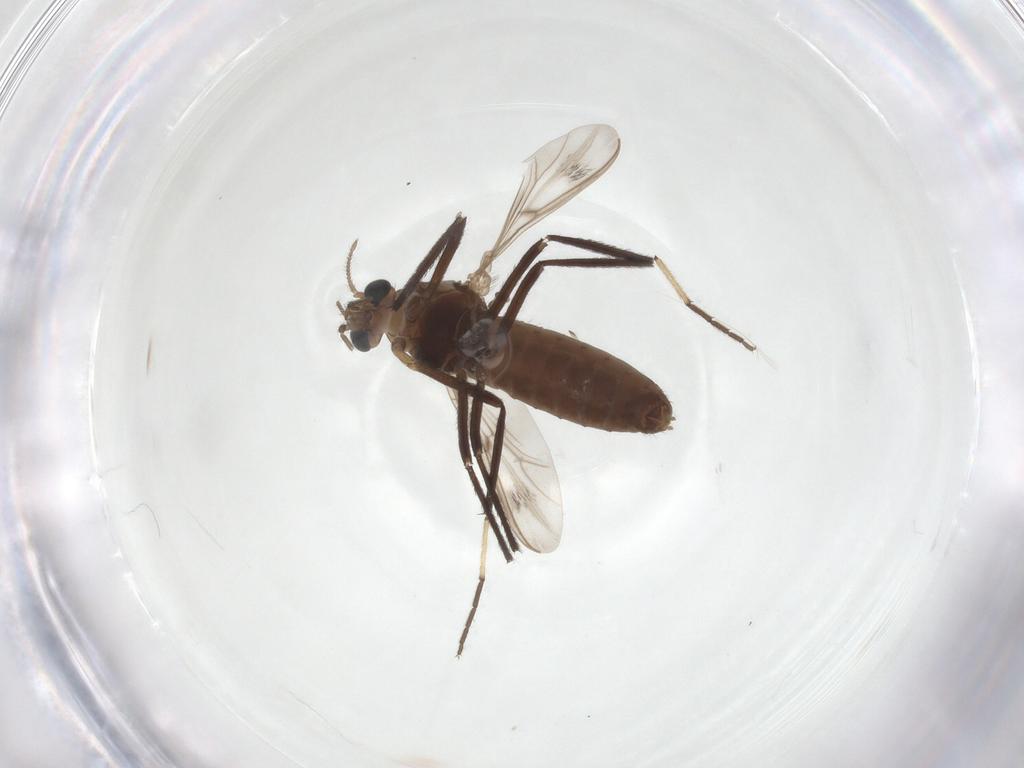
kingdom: Animalia
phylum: Arthropoda
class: Insecta
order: Diptera
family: Chironomidae
